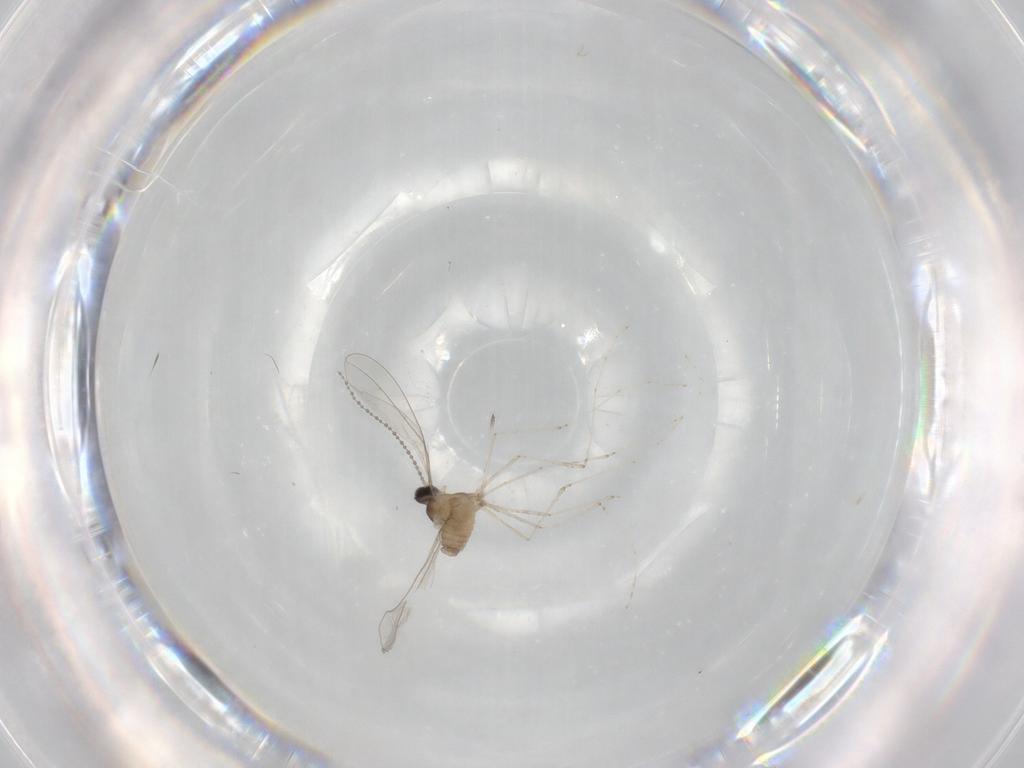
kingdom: Animalia
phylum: Arthropoda
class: Insecta
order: Diptera
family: Cecidomyiidae
